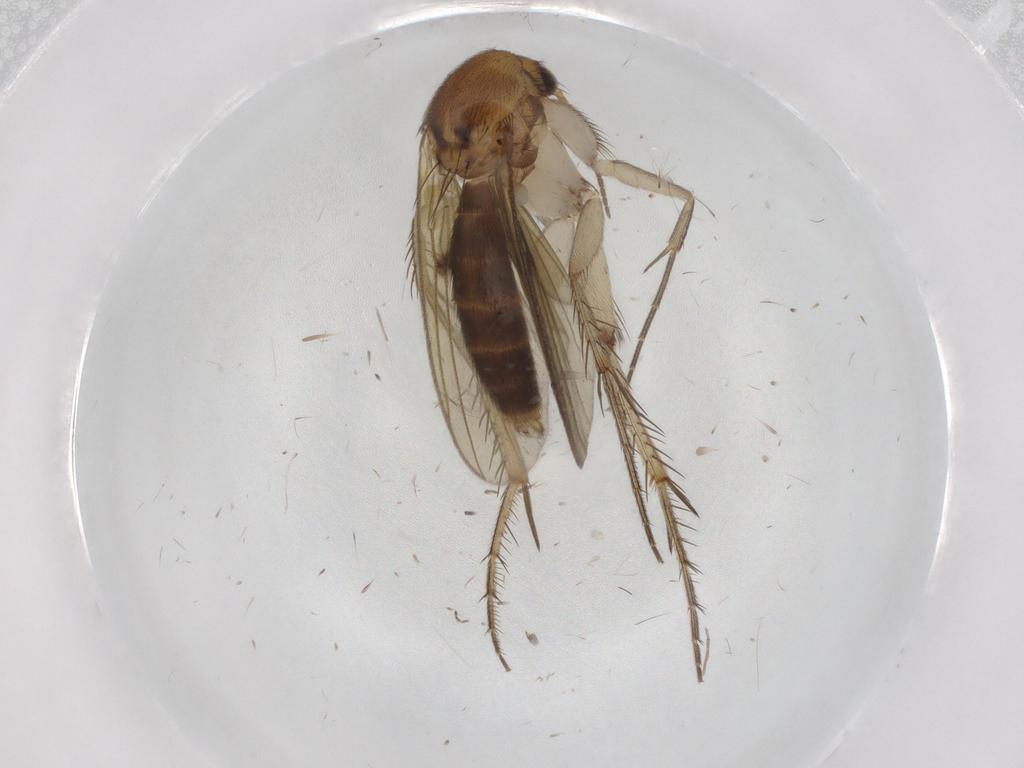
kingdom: Animalia
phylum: Arthropoda
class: Insecta
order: Diptera
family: Mycetophilidae
